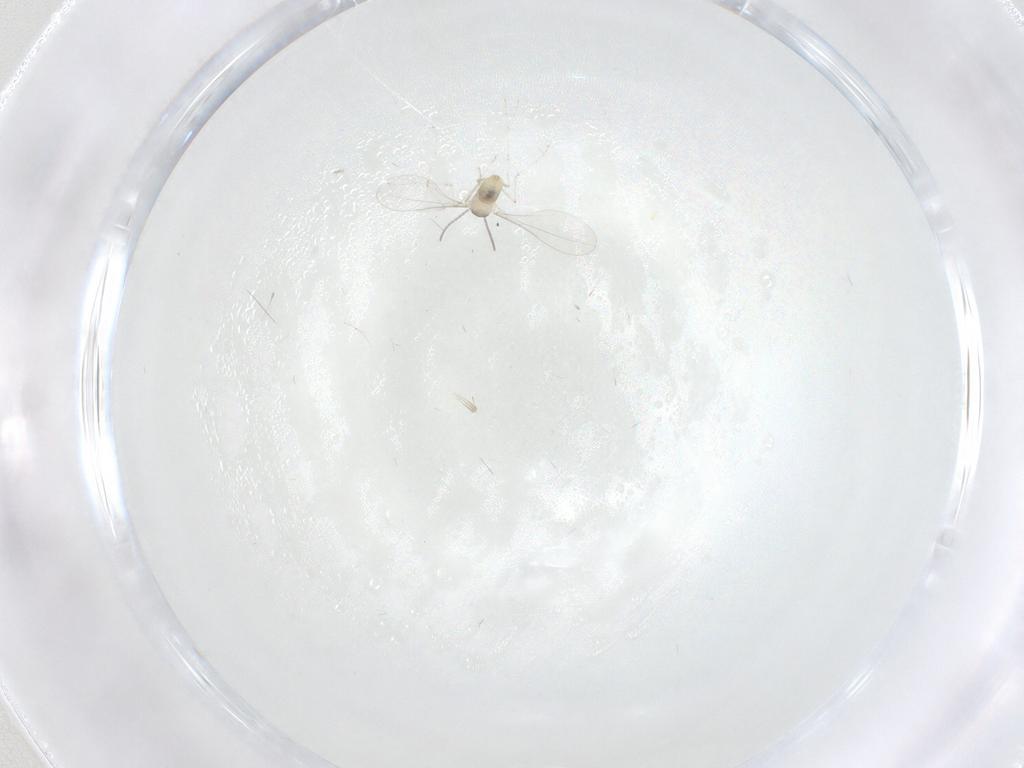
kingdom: Animalia
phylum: Arthropoda
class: Insecta
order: Diptera
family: Cecidomyiidae
